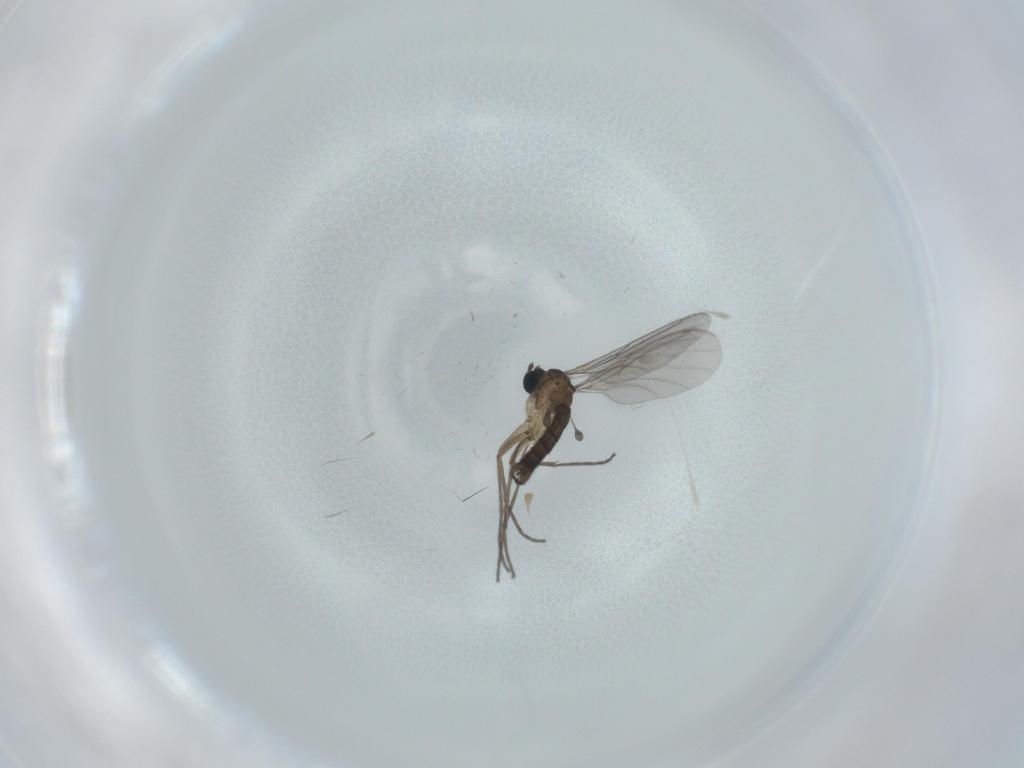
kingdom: Animalia
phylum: Arthropoda
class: Insecta
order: Diptera
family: Sciaridae
